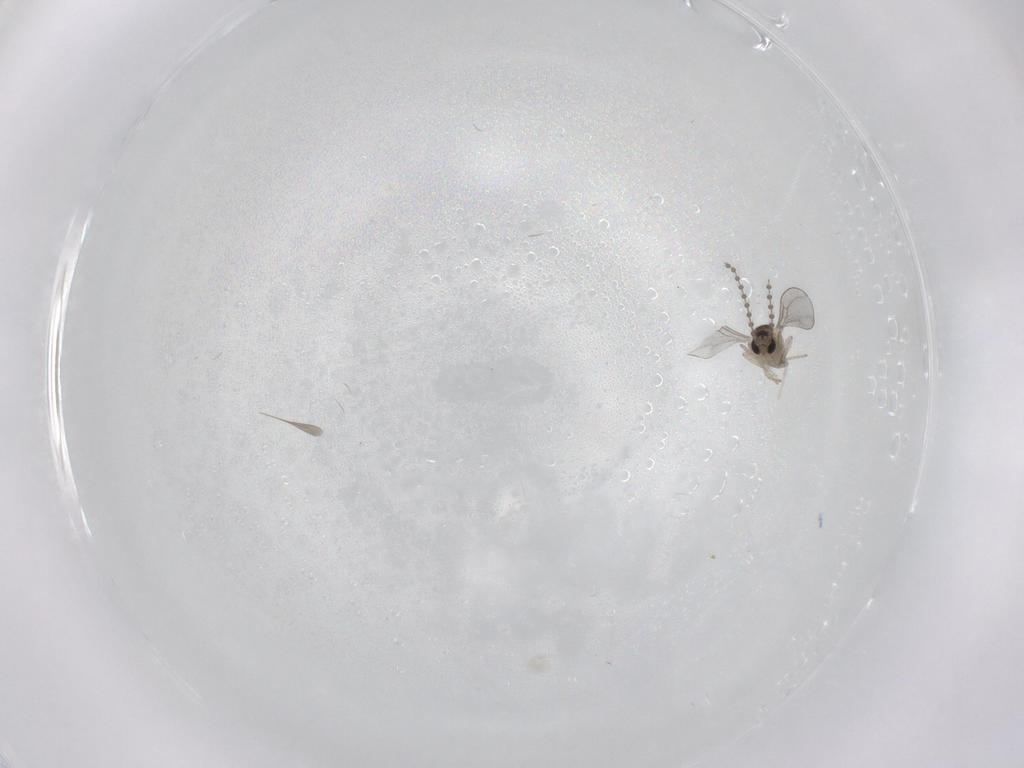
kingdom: Animalia
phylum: Arthropoda
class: Insecta
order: Diptera
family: Cecidomyiidae
